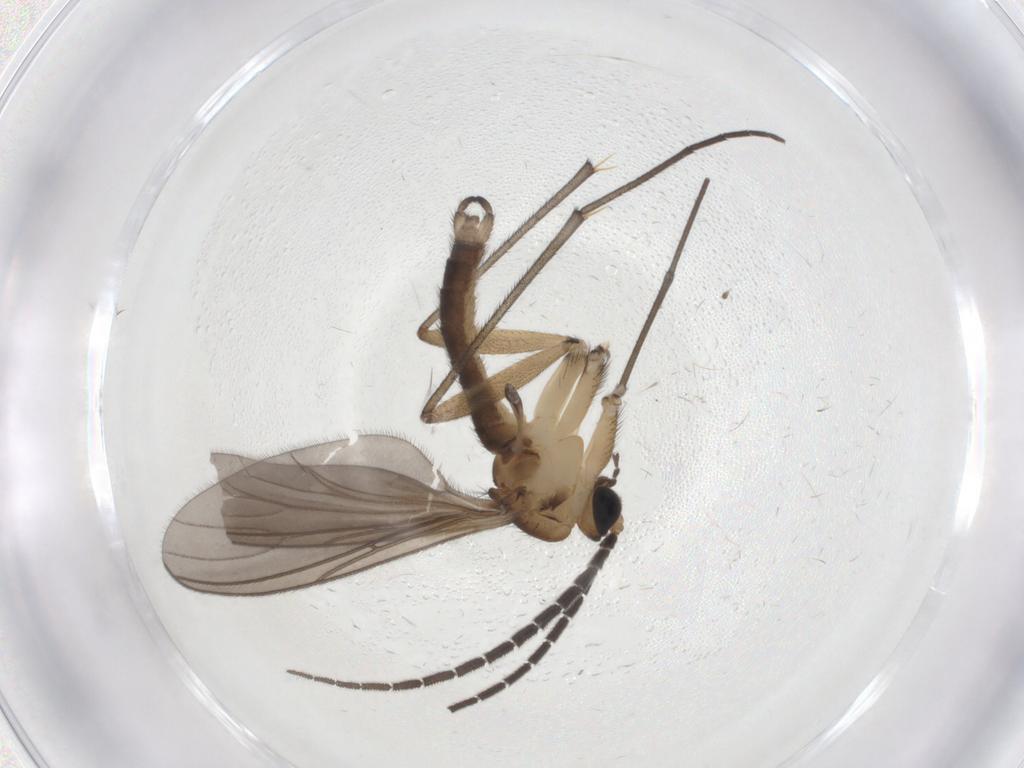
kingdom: Animalia
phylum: Arthropoda
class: Insecta
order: Diptera
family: Sciaridae
